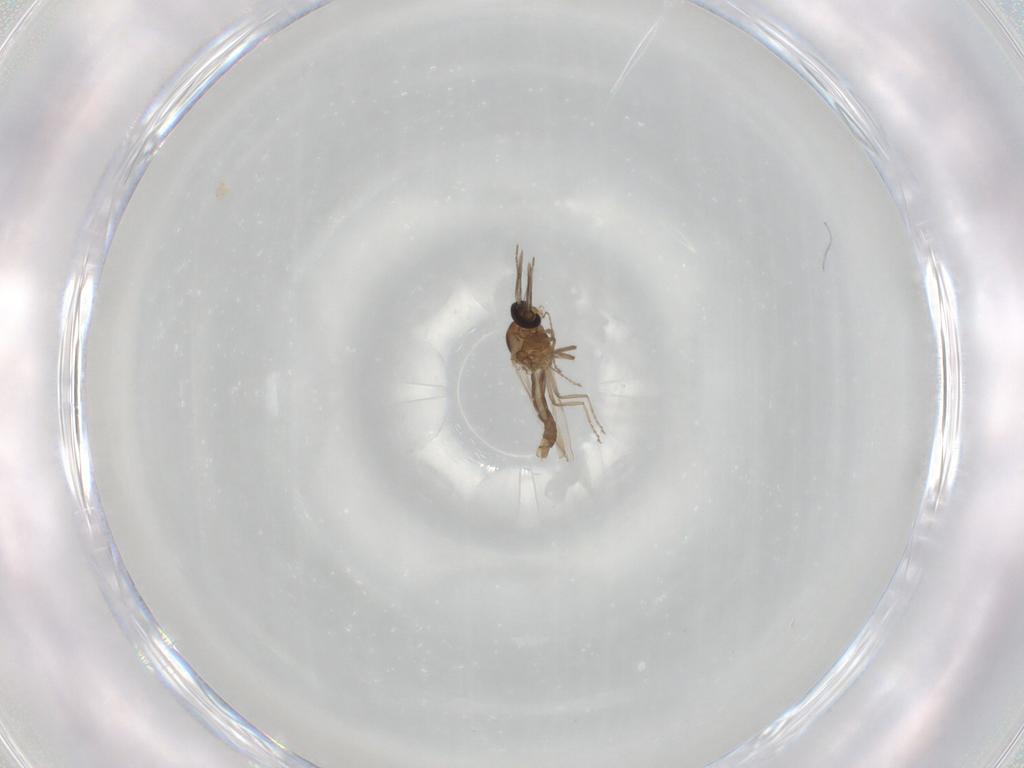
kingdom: Animalia
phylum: Arthropoda
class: Insecta
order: Diptera
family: Ceratopogonidae
